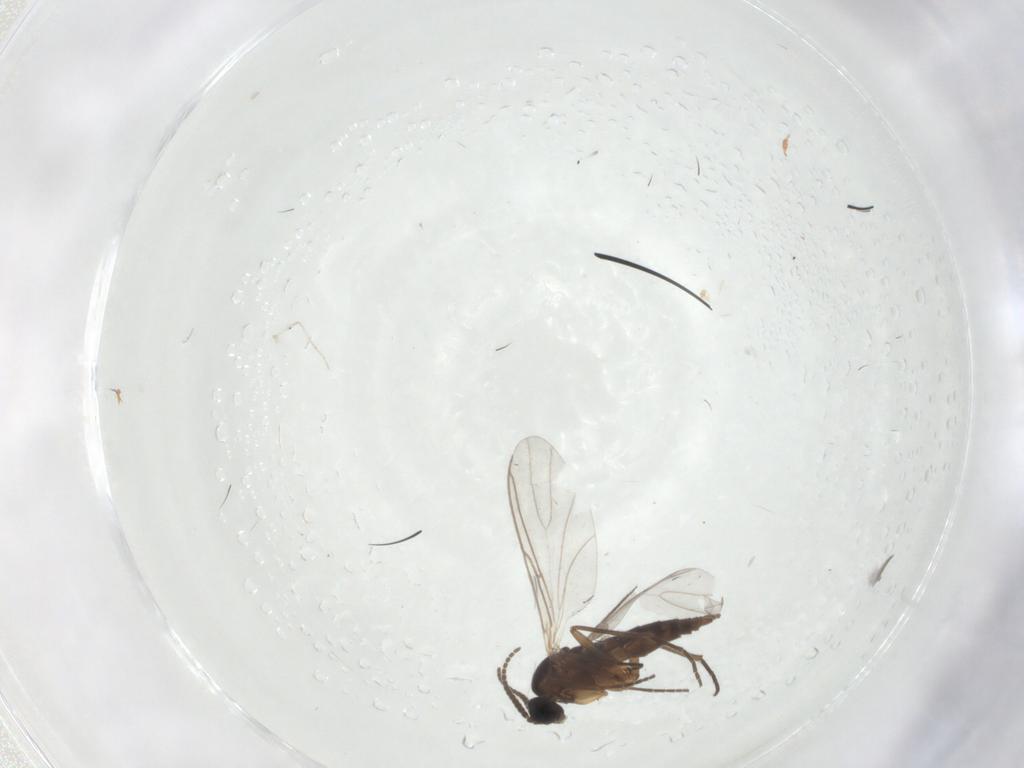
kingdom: Animalia
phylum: Arthropoda
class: Insecta
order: Diptera
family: Sciaridae
